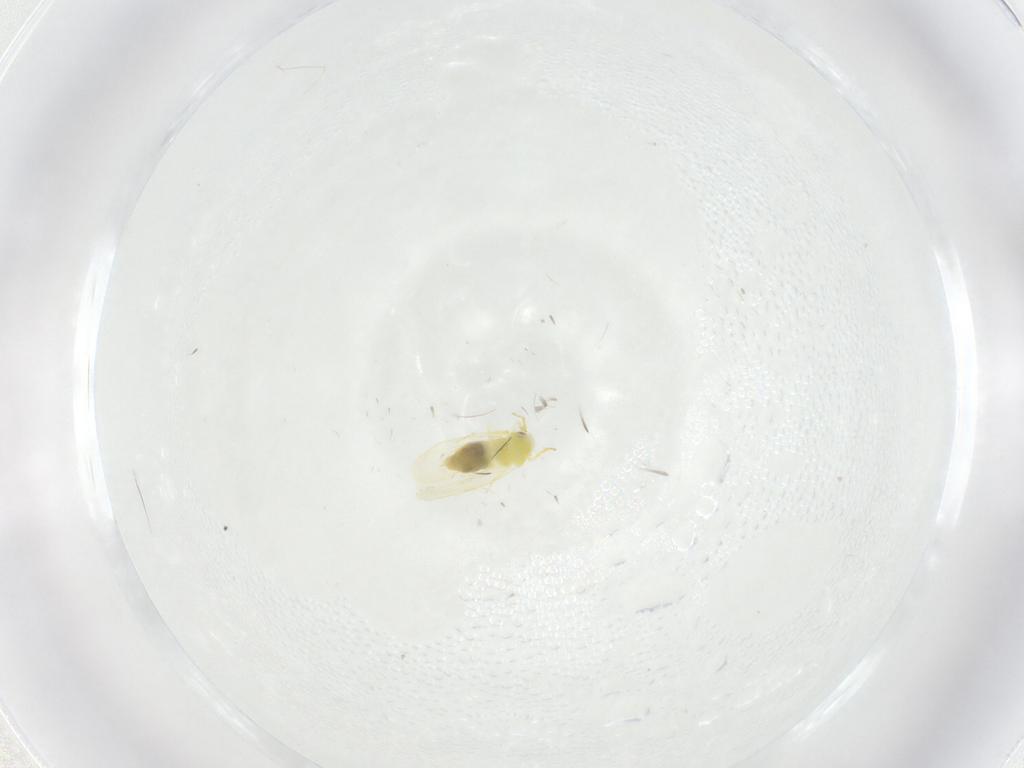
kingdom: Animalia
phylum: Arthropoda
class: Insecta
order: Hemiptera
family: Aleyrodidae
